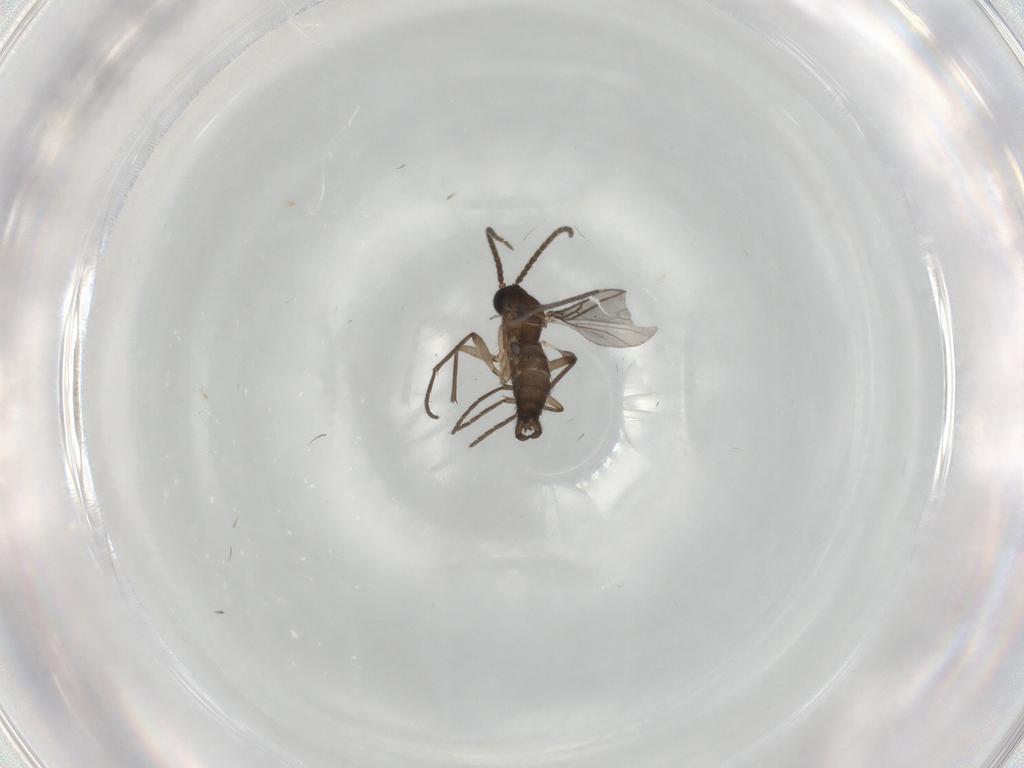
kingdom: Animalia
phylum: Arthropoda
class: Insecta
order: Diptera
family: Sciaridae
